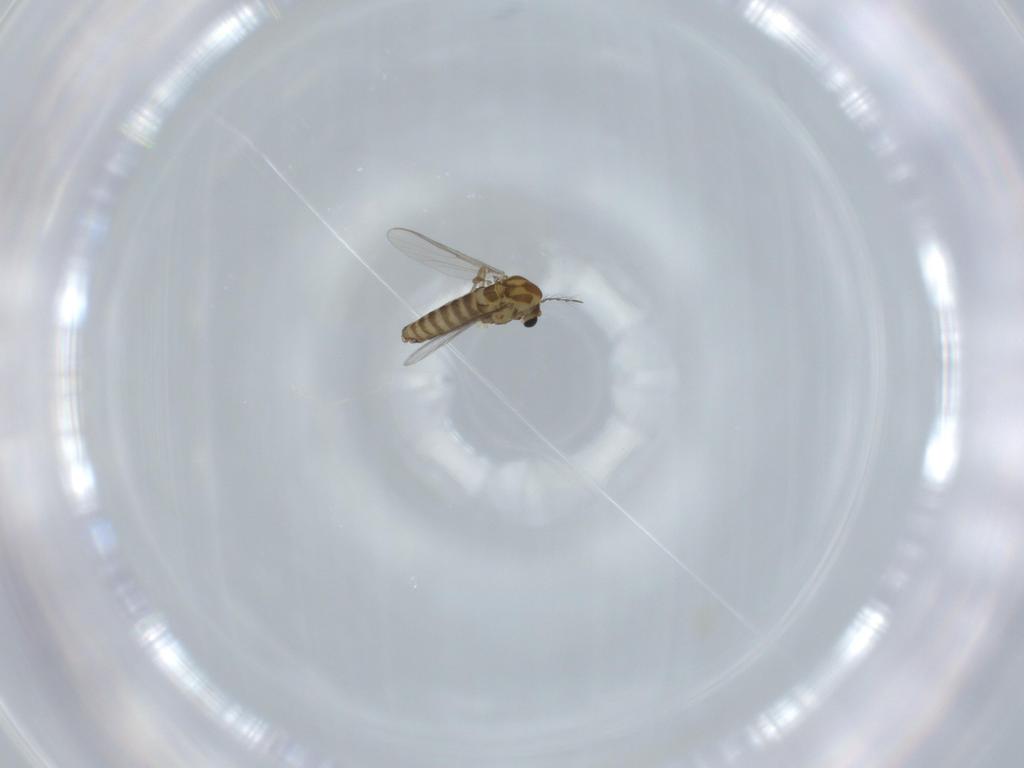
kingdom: Animalia
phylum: Arthropoda
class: Insecta
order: Diptera
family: Chironomidae
